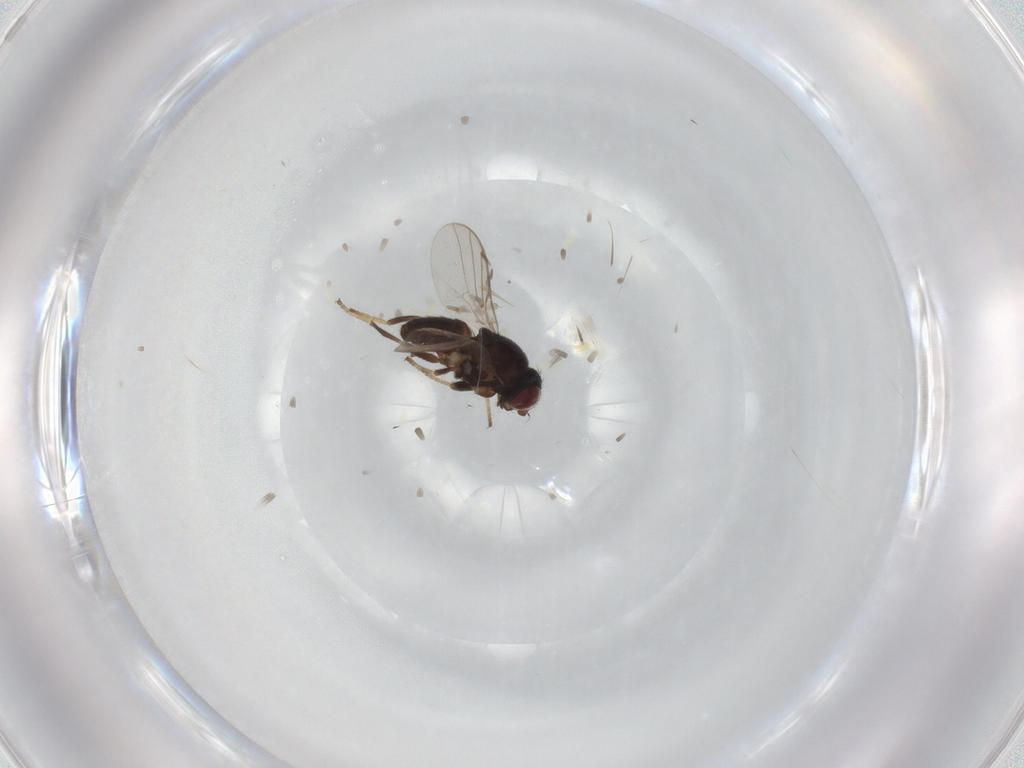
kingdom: Animalia
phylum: Arthropoda
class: Insecta
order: Diptera
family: Chloropidae
